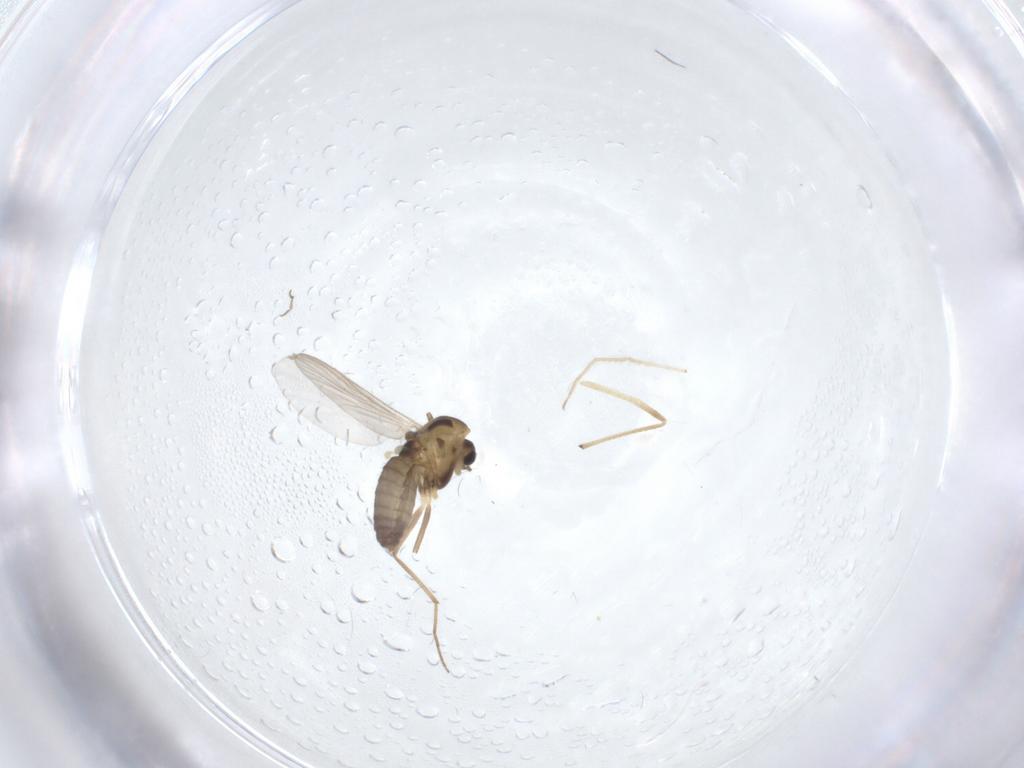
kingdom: Animalia
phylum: Arthropoda
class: Insecta
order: Diptera
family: Chironomidae
